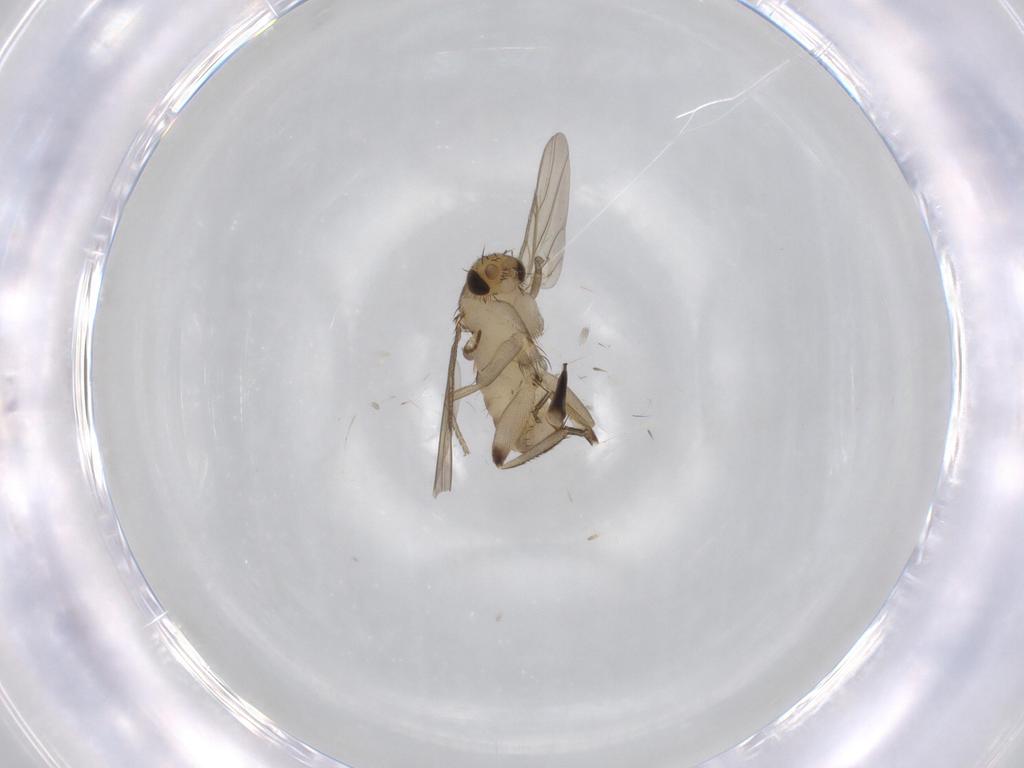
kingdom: Animalia
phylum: Arthropoda
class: Insecta
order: Diptera
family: Phoridae
